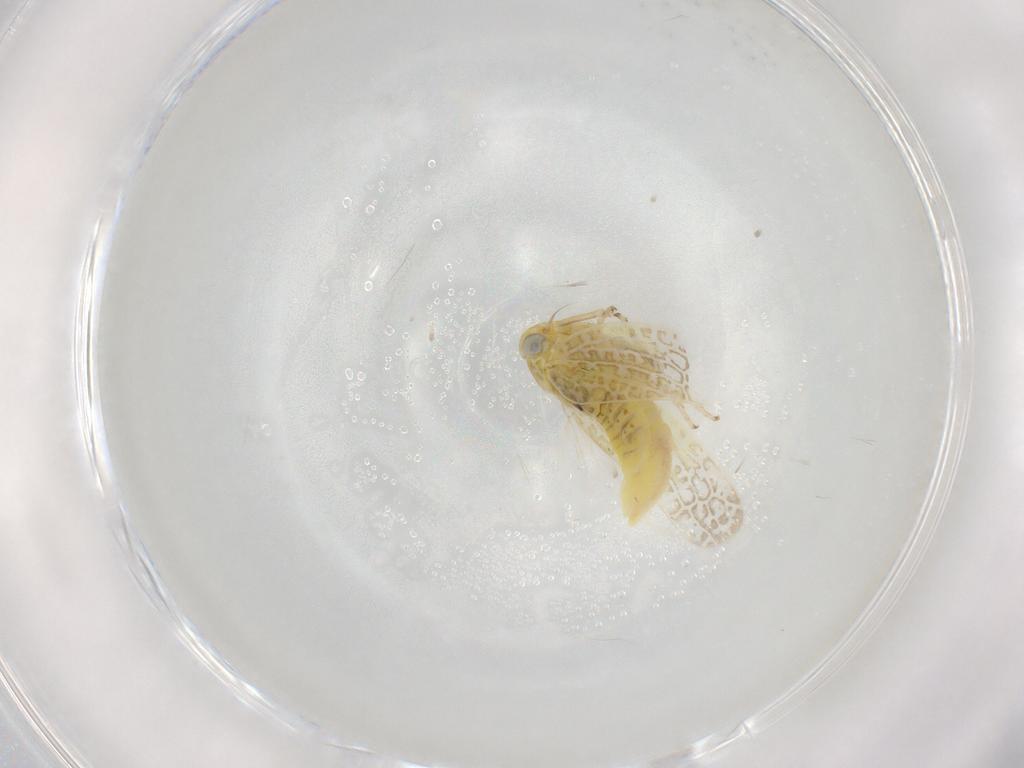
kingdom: Animalia
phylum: Arthropoda
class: Insecta
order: Hemiptera
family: Cicadellidae
